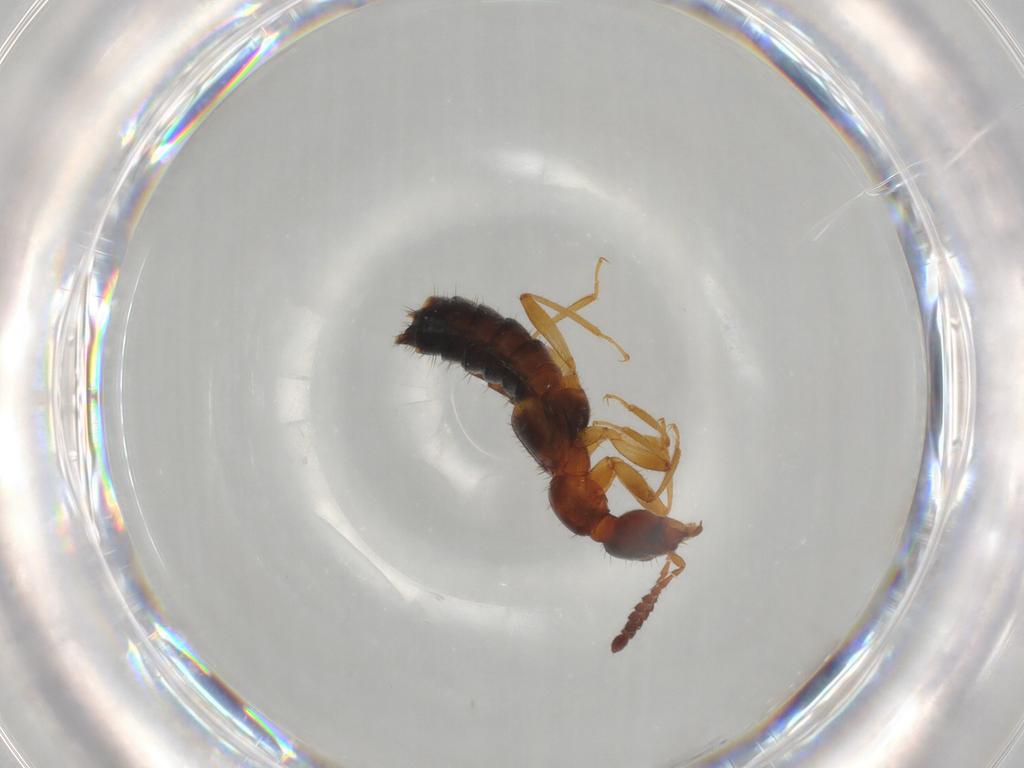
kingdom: Animalia
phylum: Arthropoda
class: Insecta
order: Coleoptera
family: Staphylinidae
